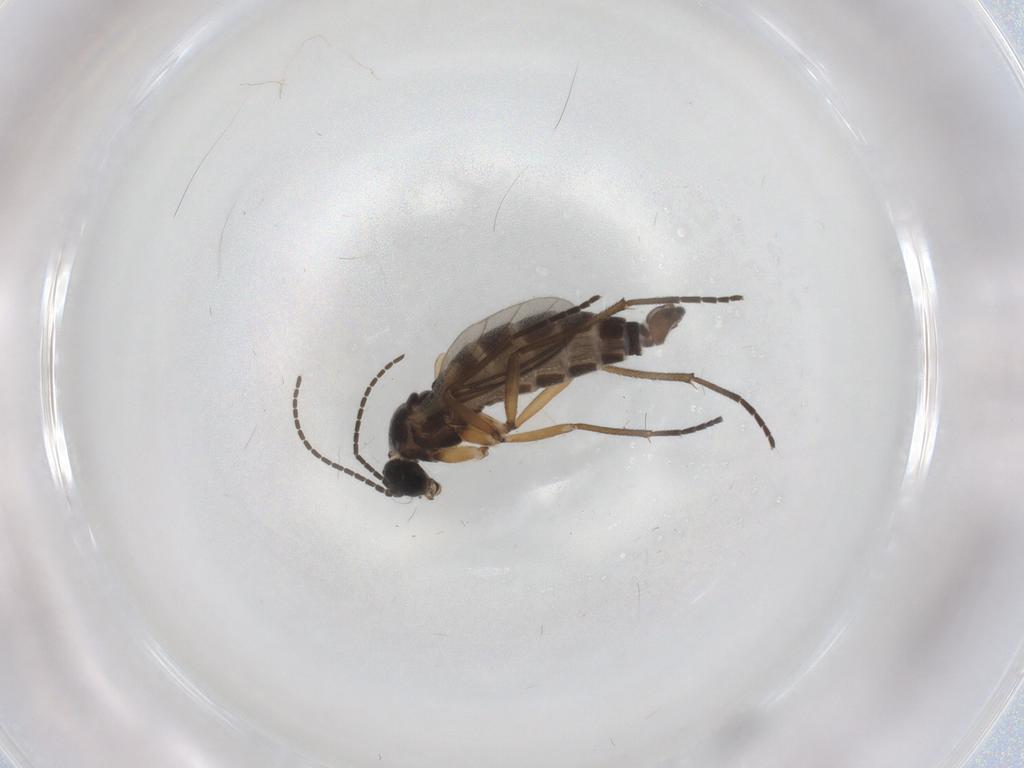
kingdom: Animalia
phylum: Arthropoda
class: Insecta
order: Diptera
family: Sciaridae
